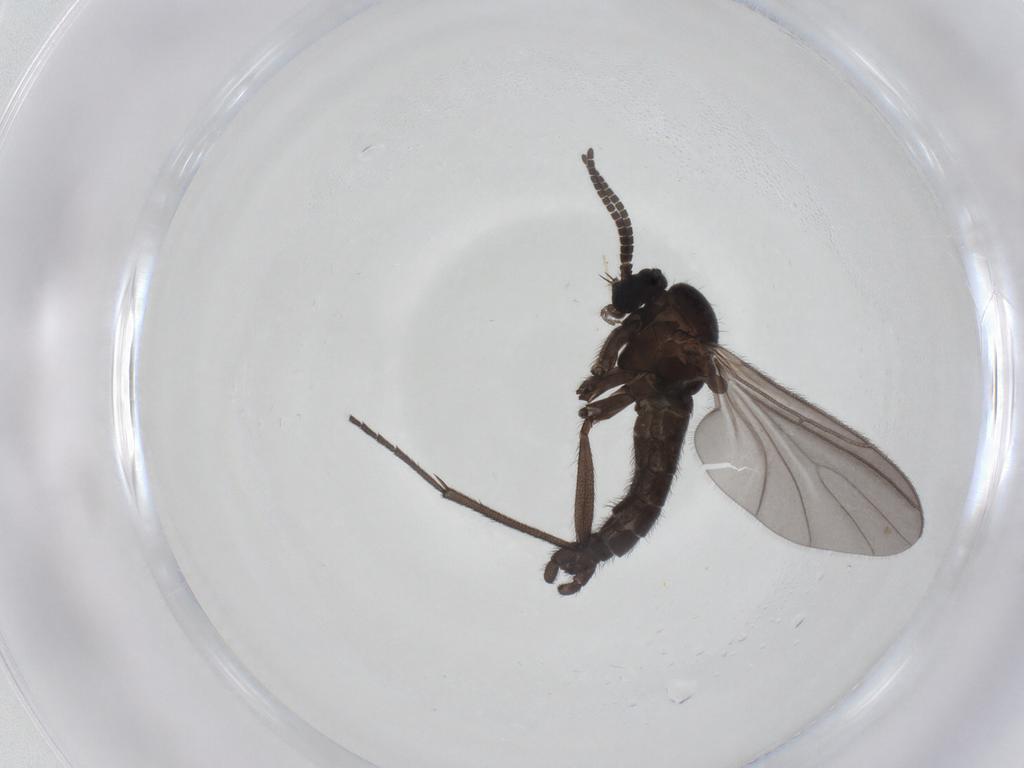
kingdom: Animalia
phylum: Arthropoda
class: Insecta
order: Diptera
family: Sciaridae
